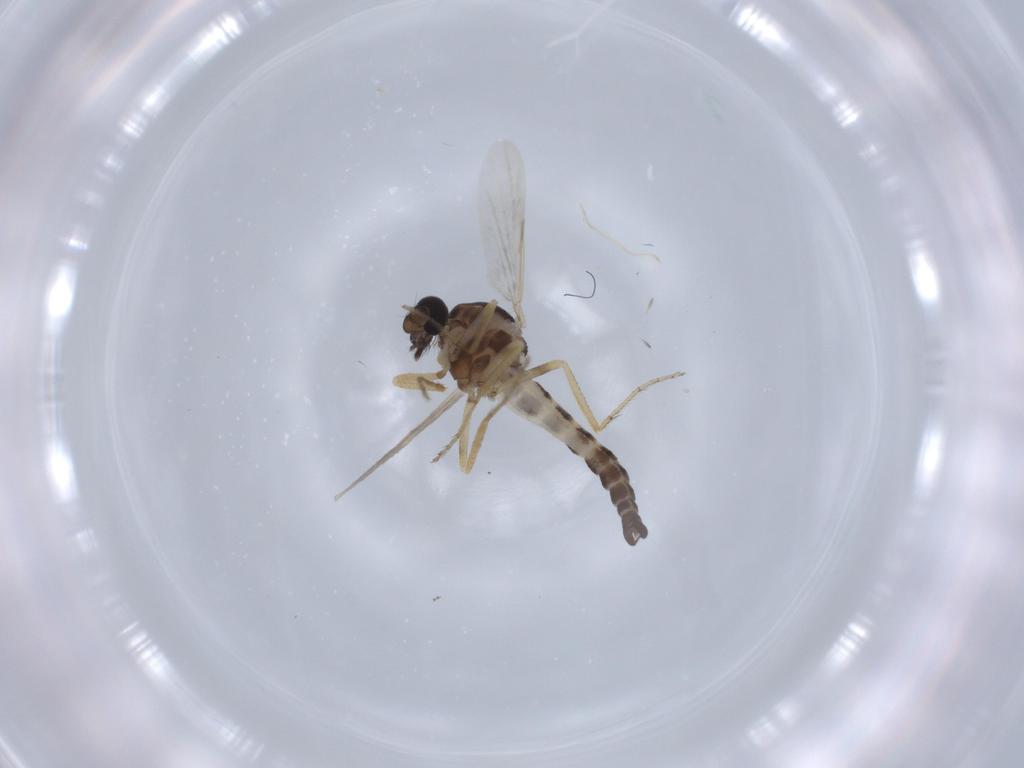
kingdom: Animalia
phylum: Arthropoda
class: Insecta
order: Diptera
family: Ceratopogonidae
